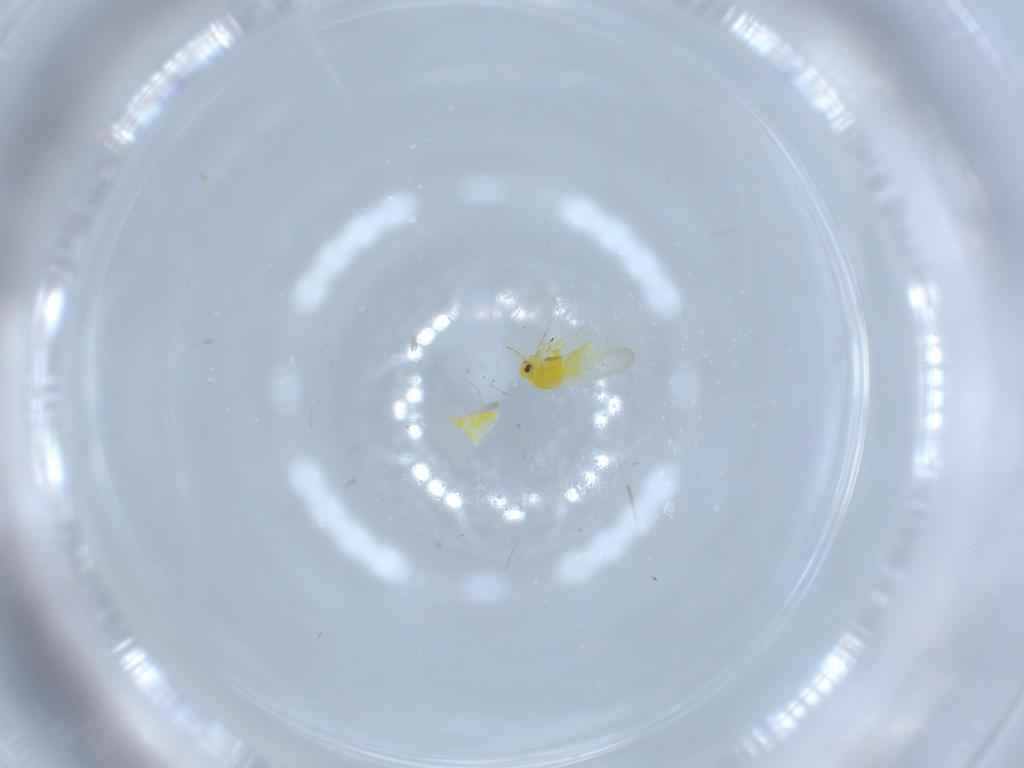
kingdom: Animalia
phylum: Arthropoda
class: Insecta
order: Hemiptera
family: Aleyrodidae
